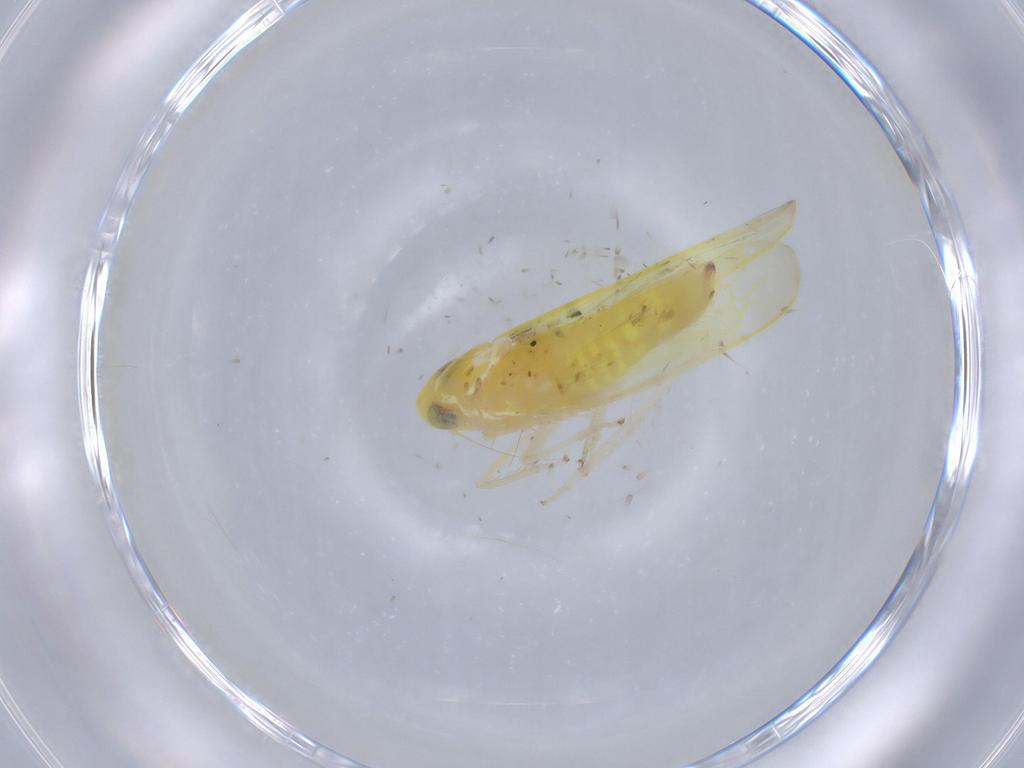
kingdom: Animalia
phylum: Arthropoda
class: Insecta
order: Hemiptera
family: Cicadellidae
